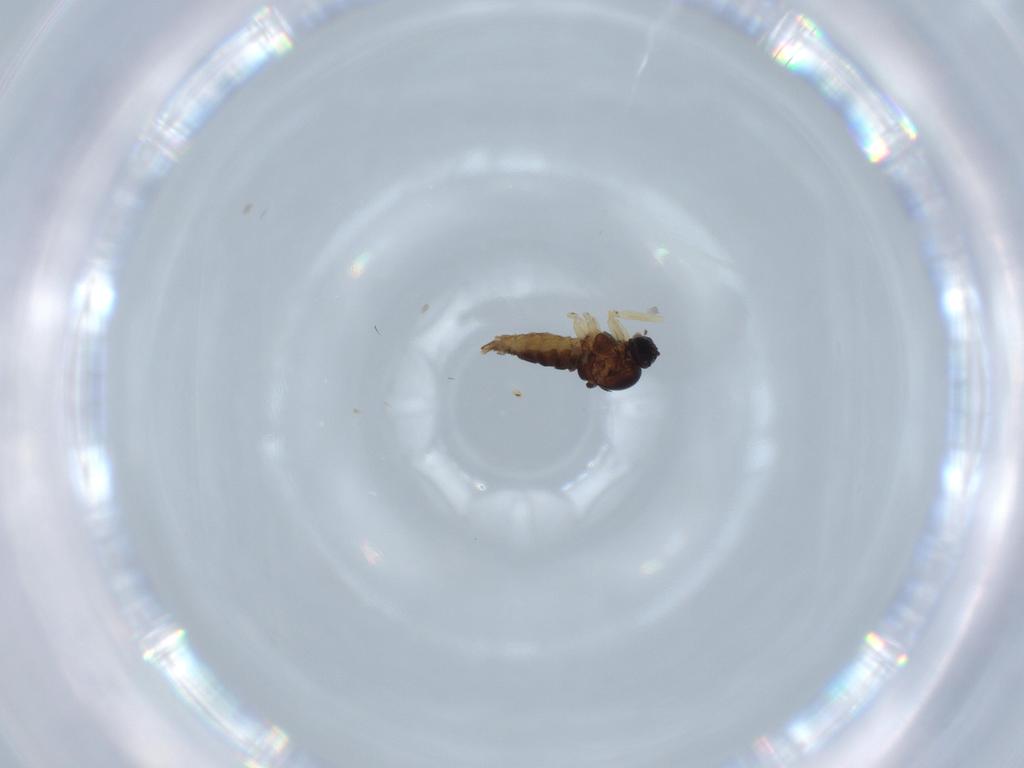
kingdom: Animalia
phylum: Arthropoda
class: Insecta
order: Diptera
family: Sciaridae
